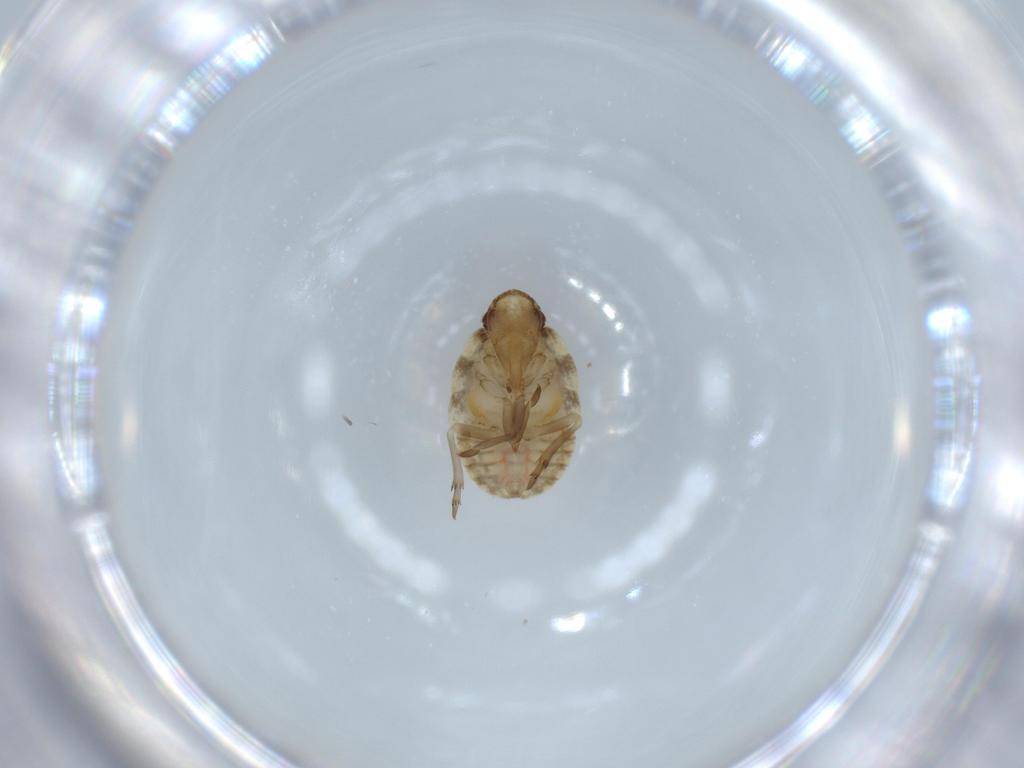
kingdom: Animalia
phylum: Arthropoda
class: Insecta
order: Hemiptera
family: Flatidae
